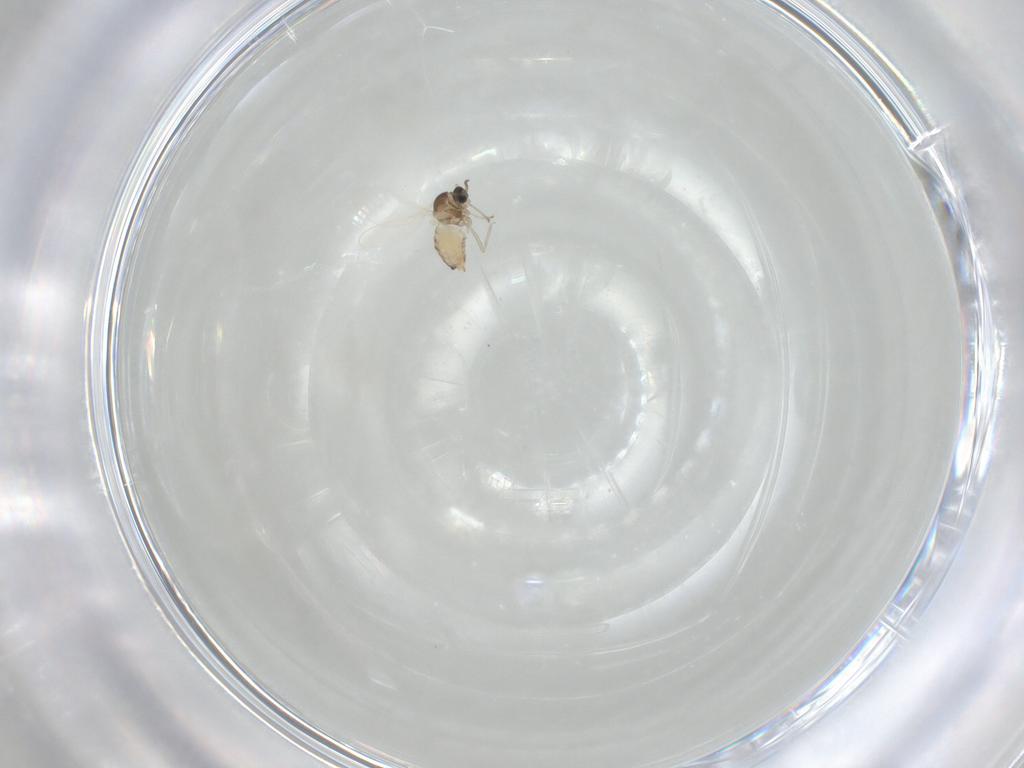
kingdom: Animalia
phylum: Arthropoda
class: Insecta
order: Diptera
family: Cecidomyiidae
